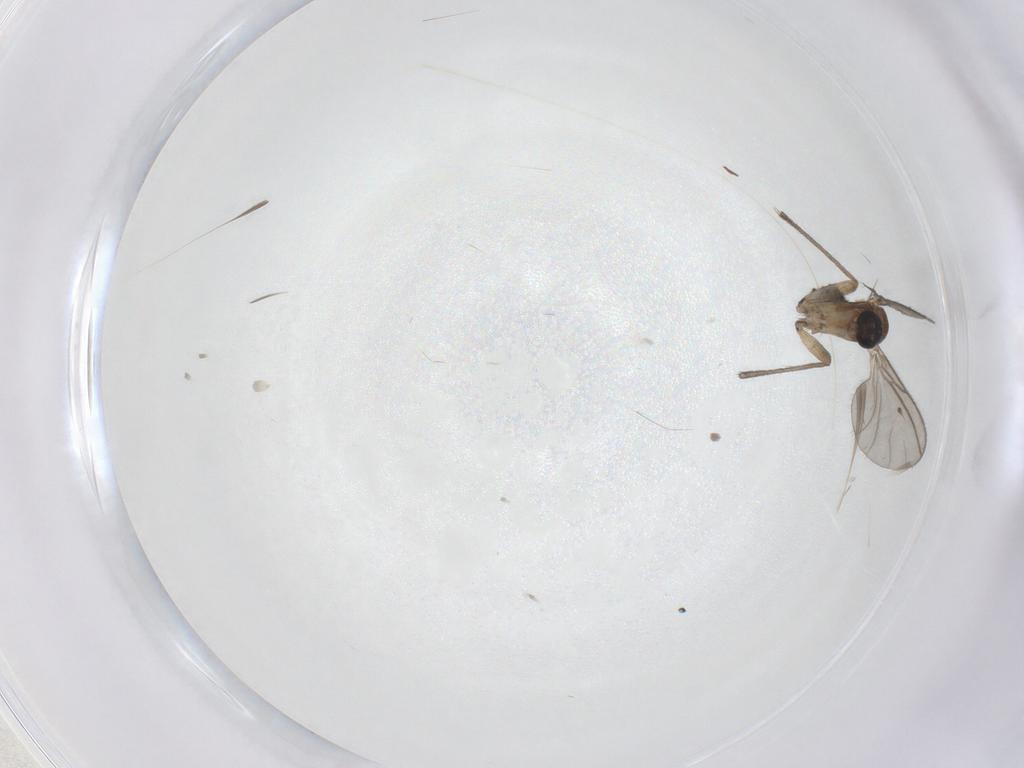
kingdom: Animalia
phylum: Arthropoda
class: Insecta
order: Diptera
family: Sciaridae
